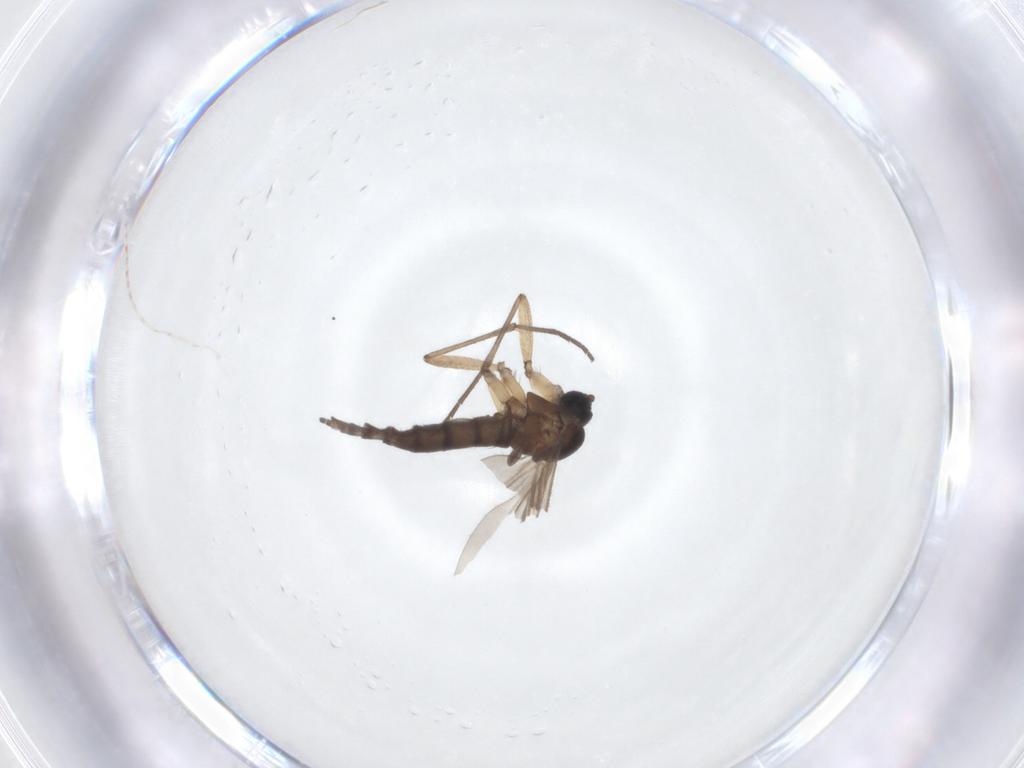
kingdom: Animalia
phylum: Arthropoda
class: Insecta
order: Diptera
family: Sciaridae
